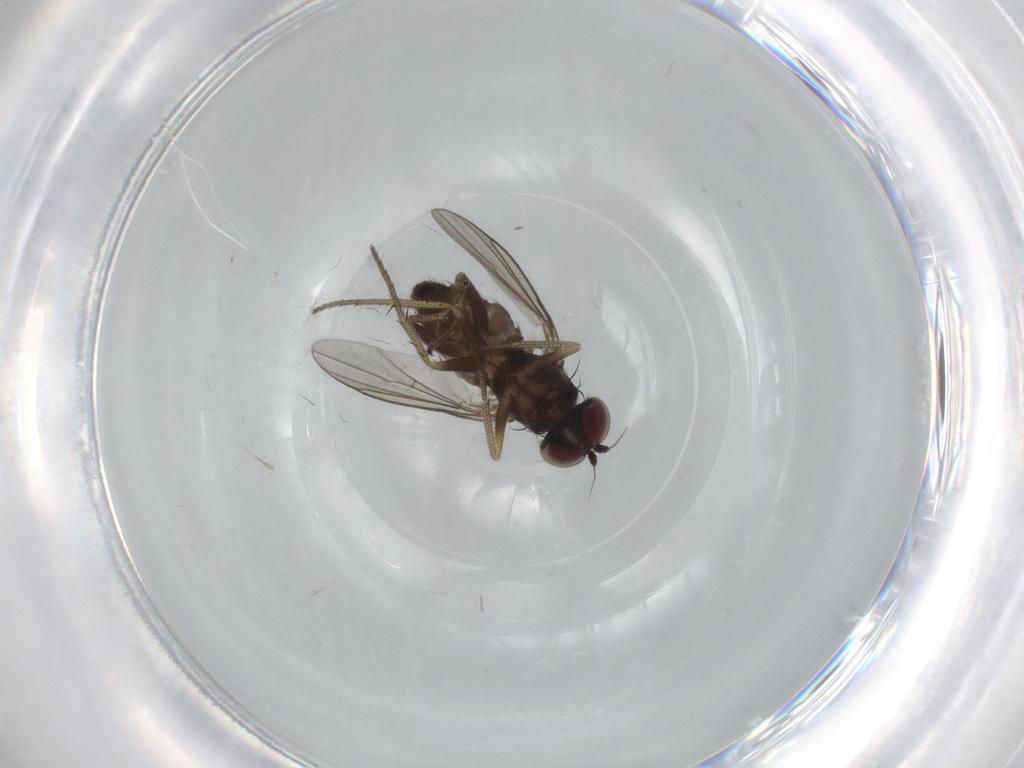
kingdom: Animalia
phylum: Arthropoda
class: Insecta
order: Diptera
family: Chironomidae
